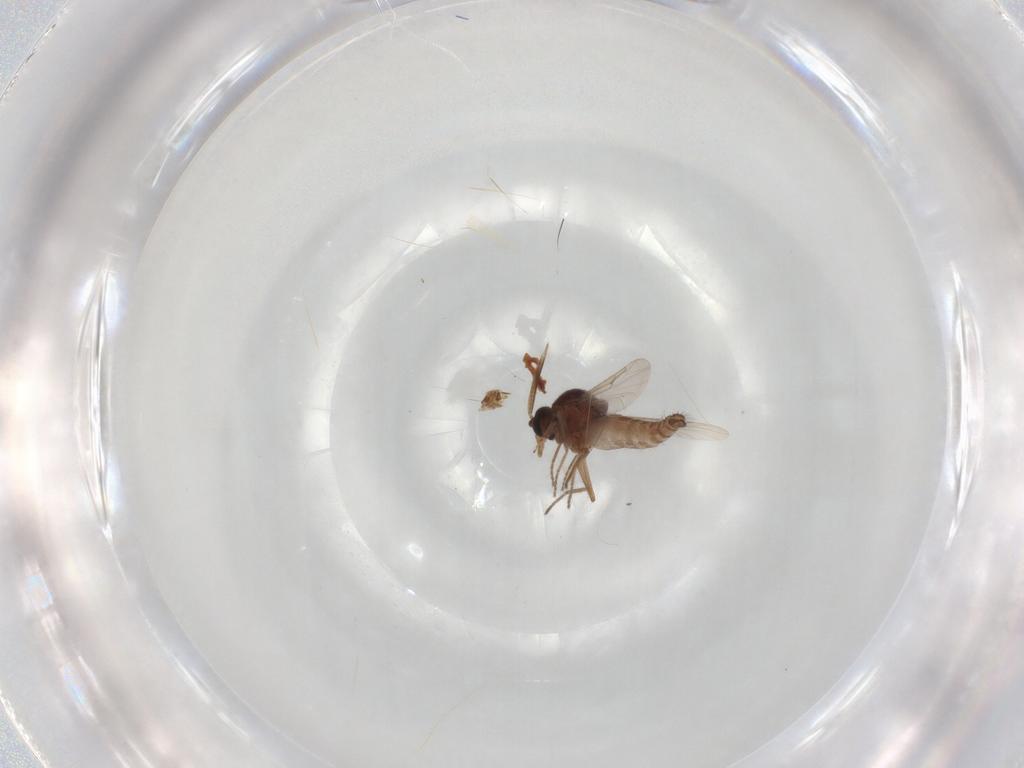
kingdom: Animalia
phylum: Arthropoda
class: Insecta
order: Diptera
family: Ceratopogonidae
